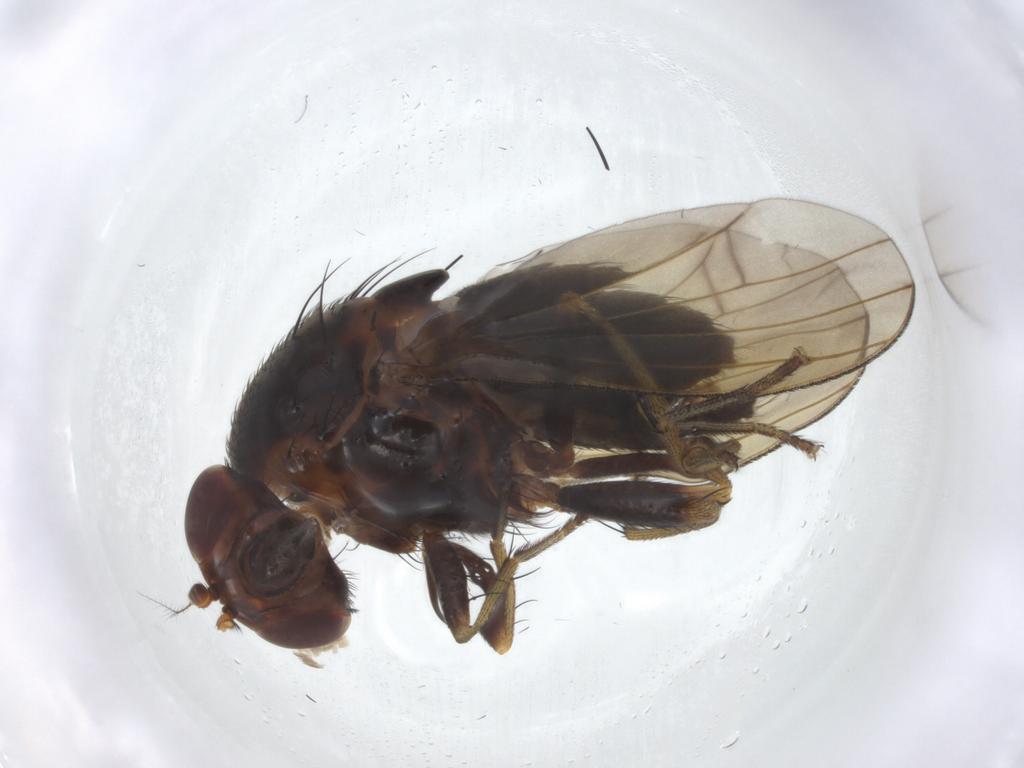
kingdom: Animalia
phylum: Arthropoda
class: Insecta
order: Diptera
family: Lauxaniidae
